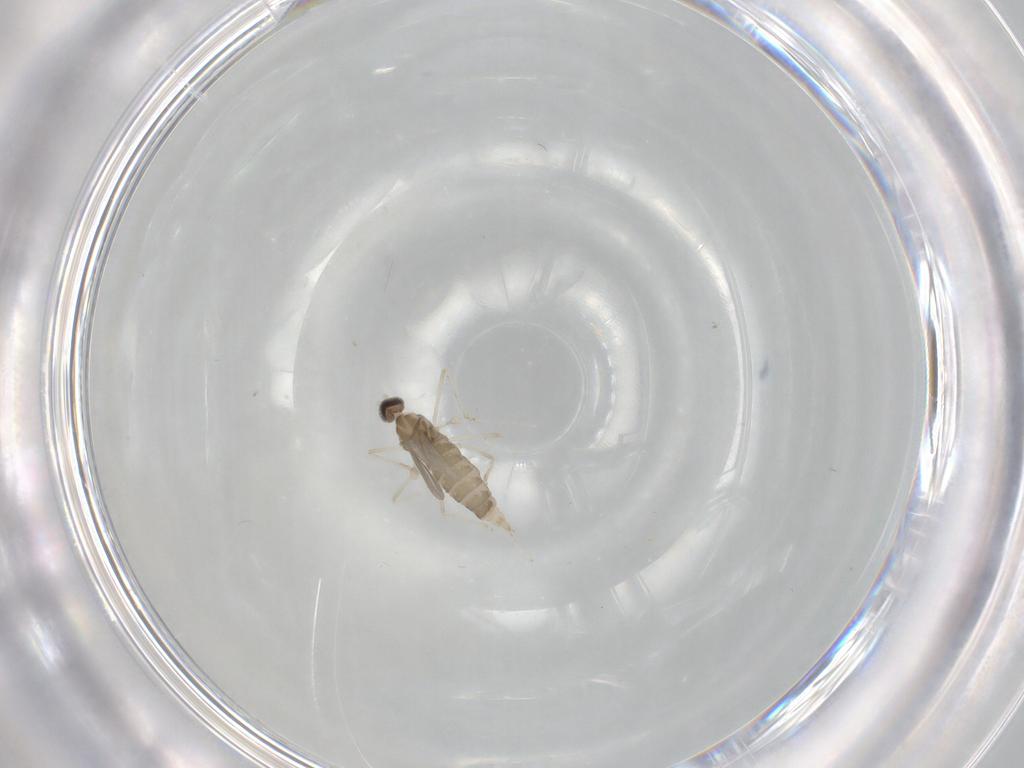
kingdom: Animalia
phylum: Arthropoda
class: Insecta
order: Diptera
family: Cecidomyiidae
